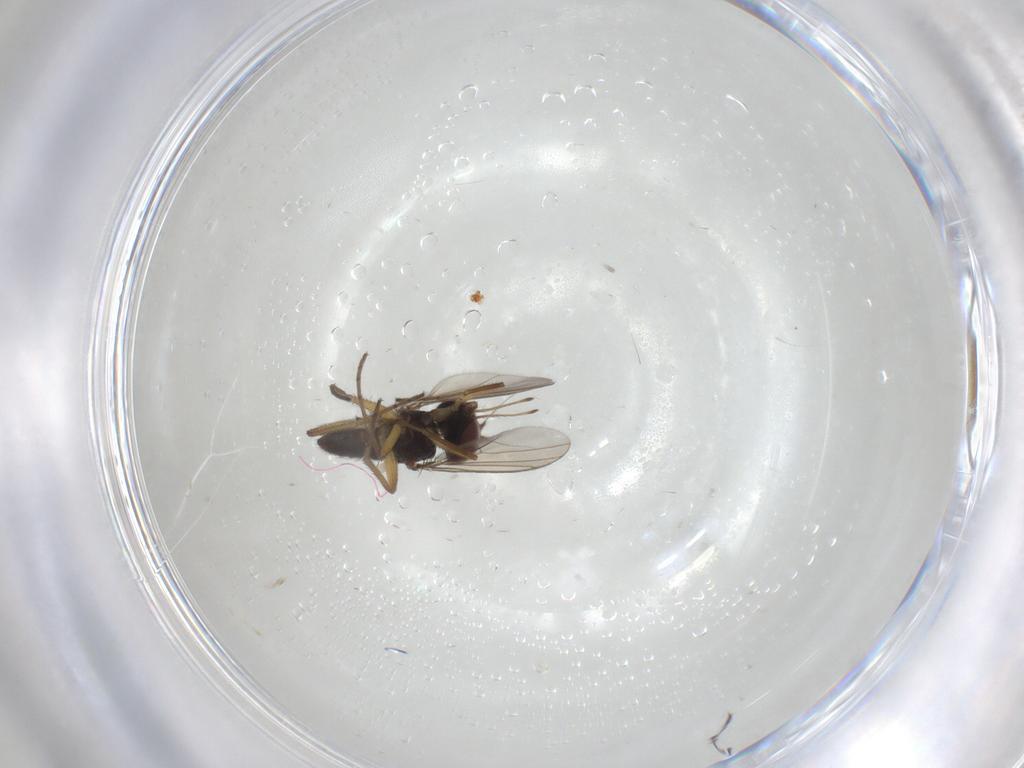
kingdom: Animalia
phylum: Arthropoda
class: Insecta
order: Diptera
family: Dolichopodidae
